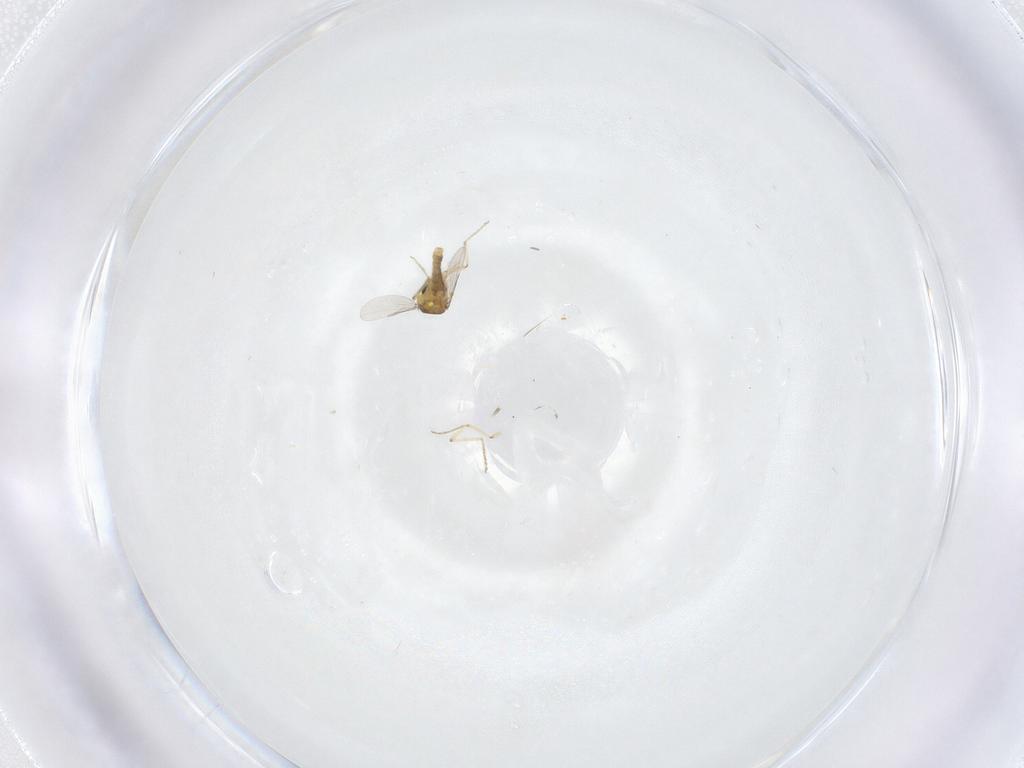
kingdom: Animalia
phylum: Arthropoda
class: Insecta
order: Diptera
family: Ceratopogonidae
